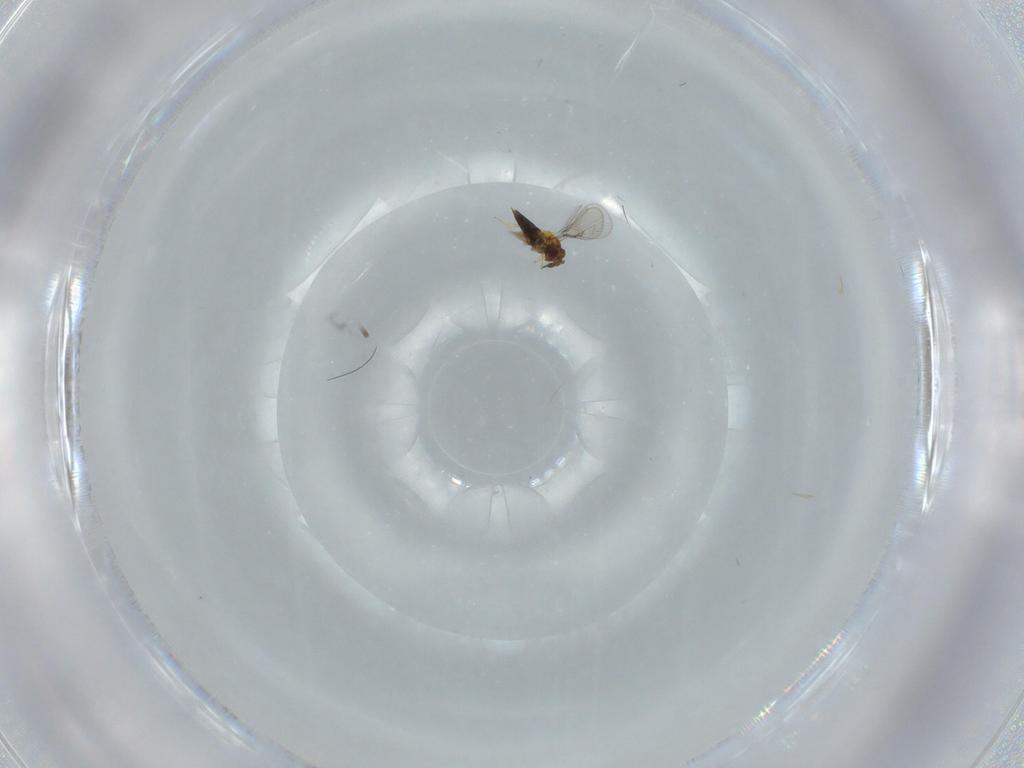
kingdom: Animalia
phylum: Arthropoda
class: Insecta
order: Hymenoptera
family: Trichogrammatidae
